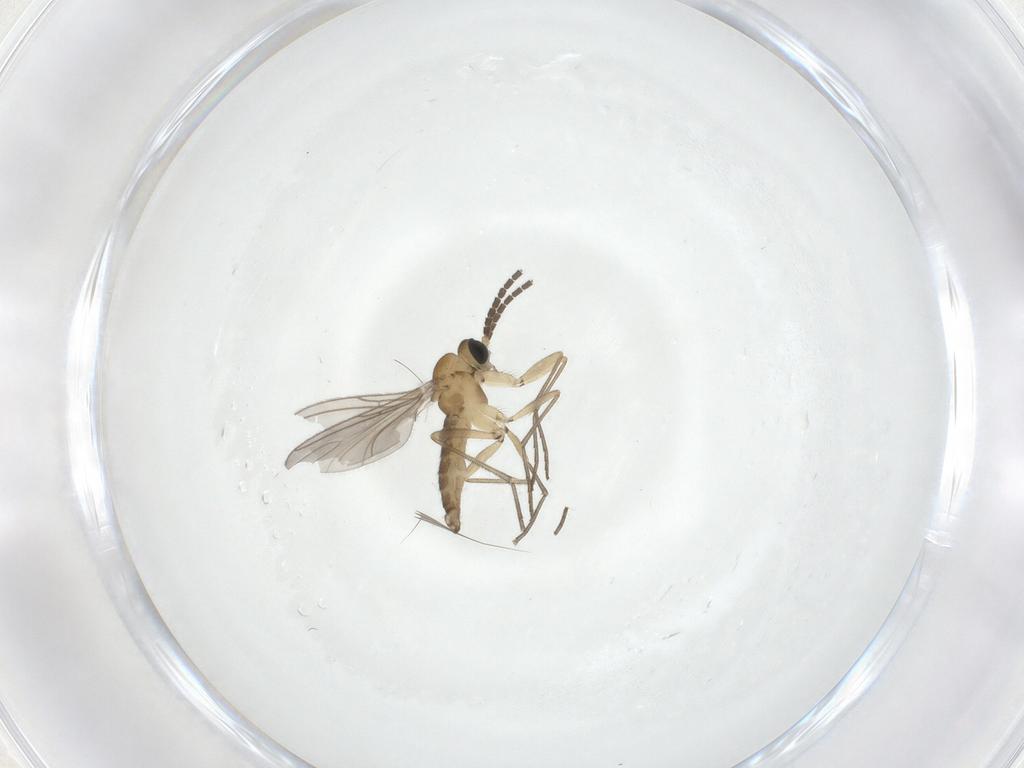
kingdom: Animalia
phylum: Arthropoda
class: Insecta
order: Diptera
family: Sciaridae
